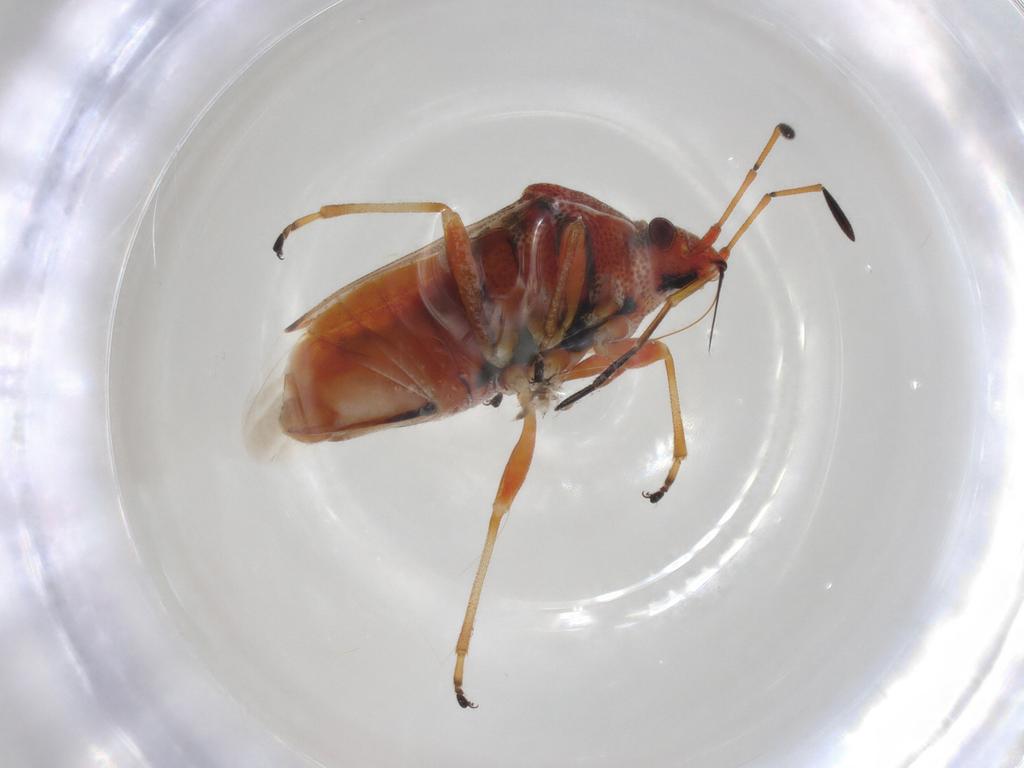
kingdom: Animalia
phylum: Arthropoda
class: Insecta
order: Hemiptera
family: Lygaeidae
